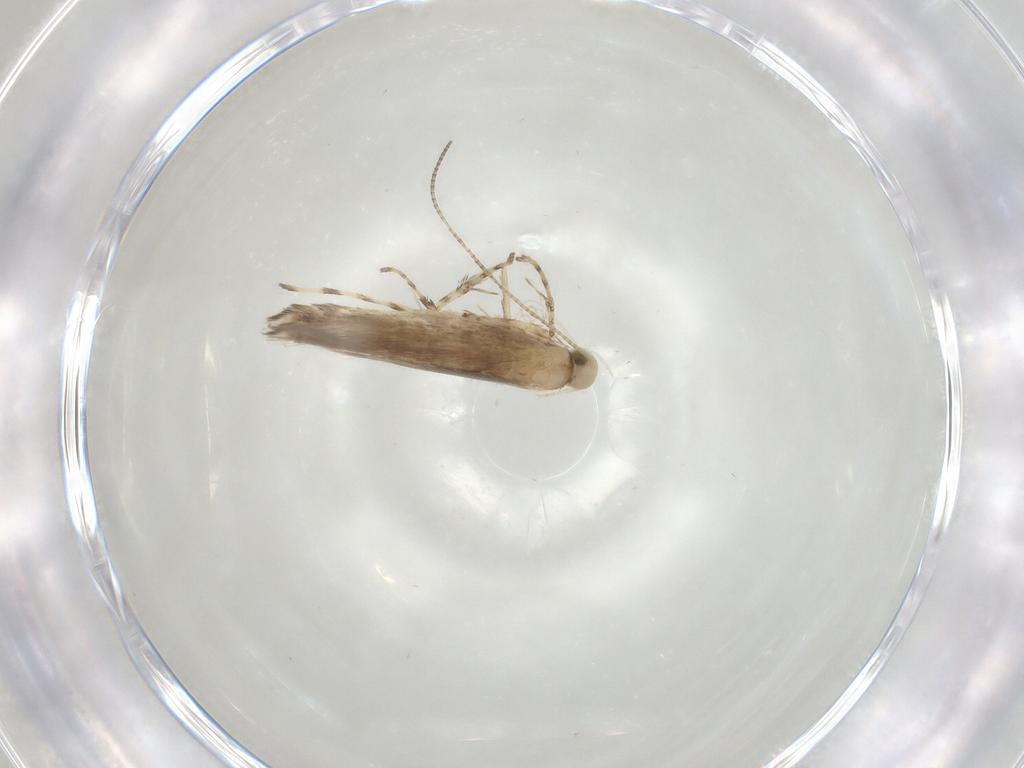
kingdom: Animalia
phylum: Arthropoda
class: Insecta
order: Lepidoptera
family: Gracillariidae
